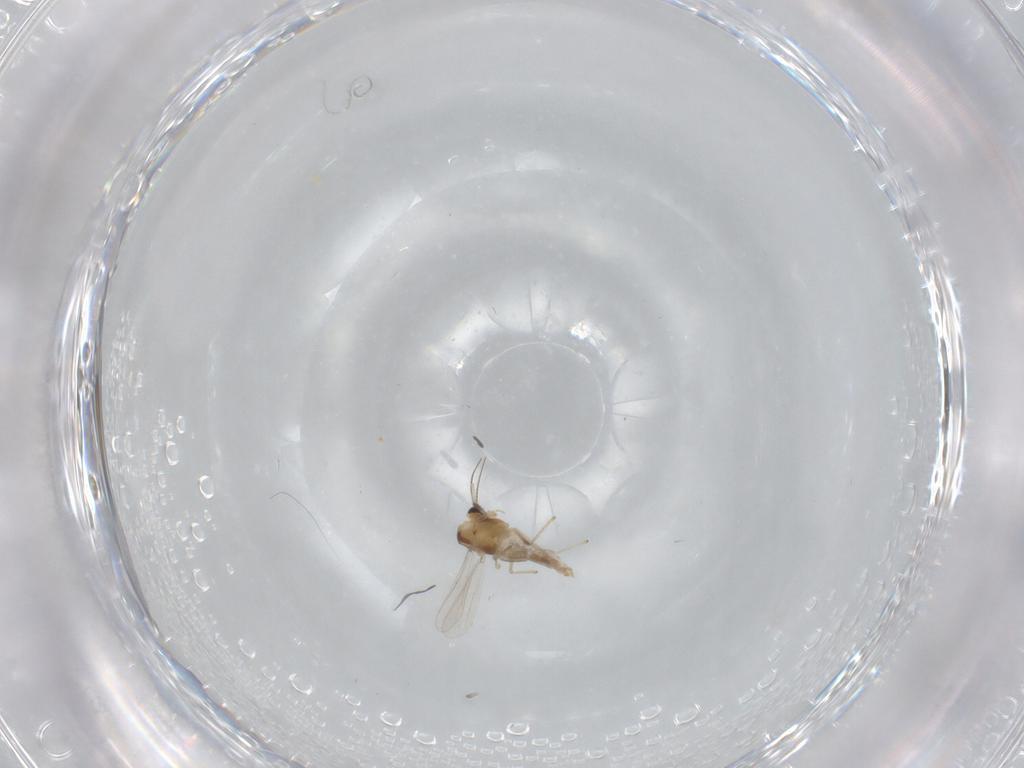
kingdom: Animalia
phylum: Arthropoda
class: Insecta
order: Diptera
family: Chironomidae
